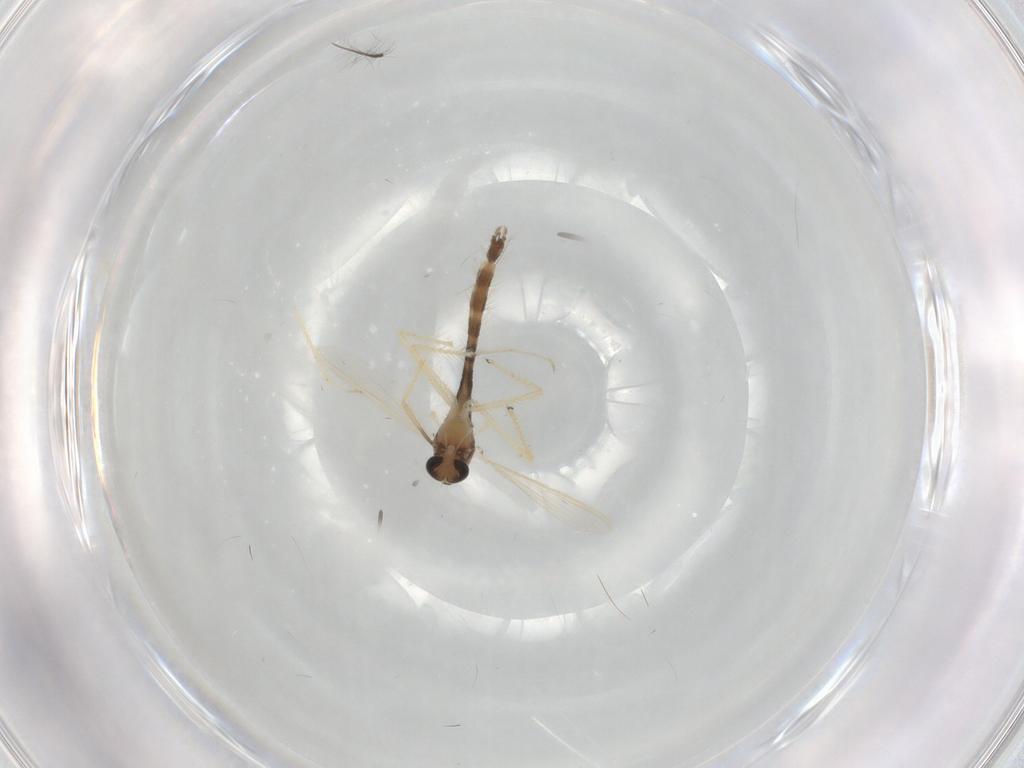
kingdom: Animalia
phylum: Arthropoda
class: Insecta
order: Diptera
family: Chironomidae
